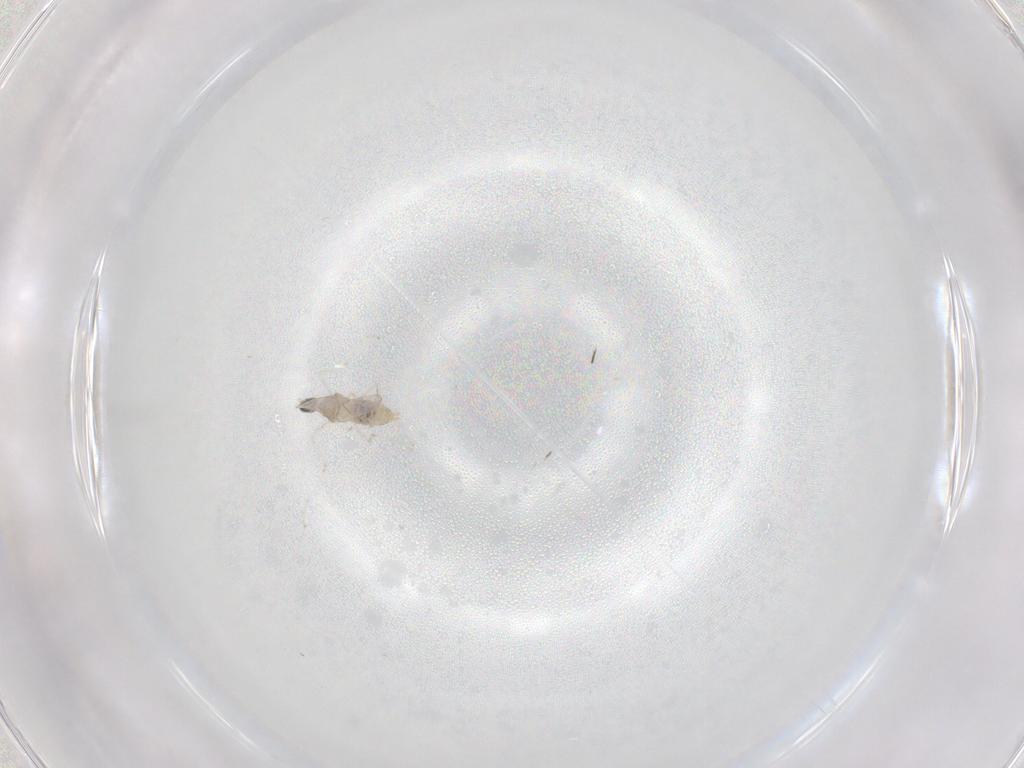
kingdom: Animalia
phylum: Arthropoda
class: Insecta
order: Diptera
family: Cecidomyiidae
